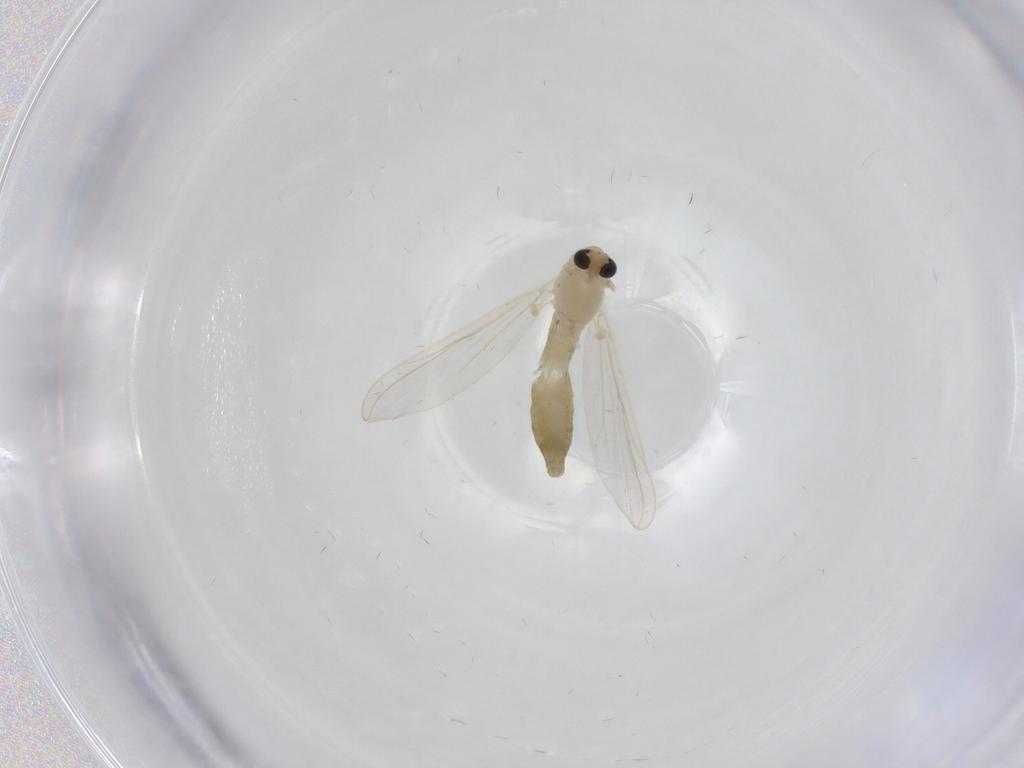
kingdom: Animalia
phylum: Arthropoda
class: Insecta
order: Diptera
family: Chironomidae
